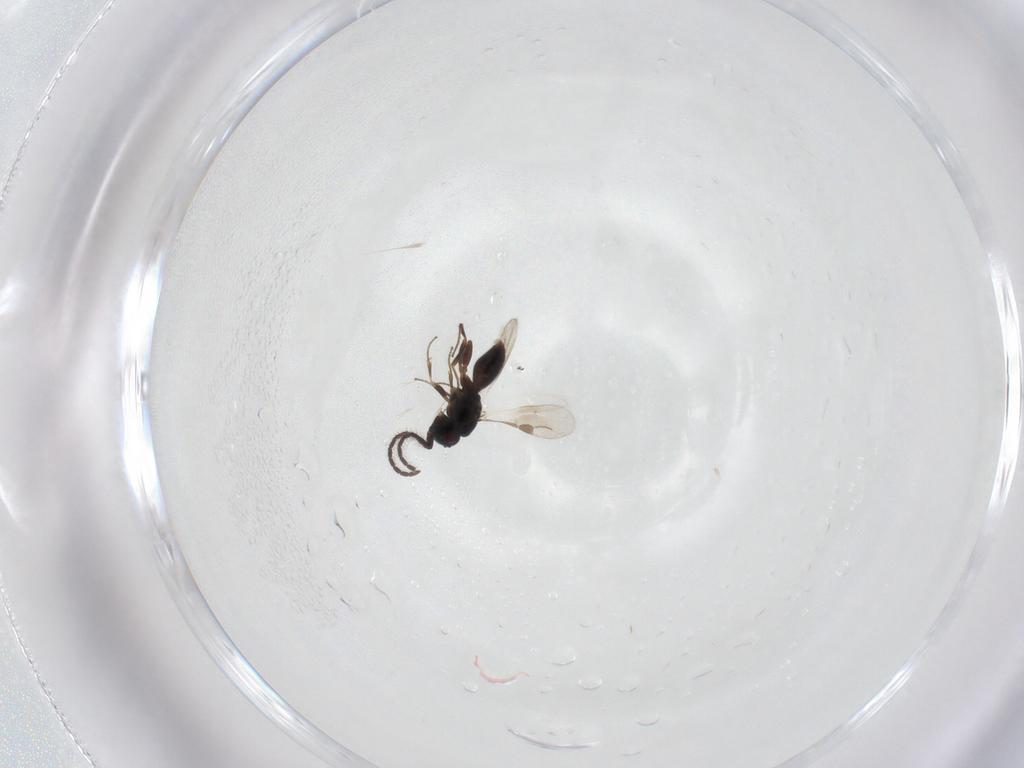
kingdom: Animalia
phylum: Arthropoda
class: Insecta
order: Hymenoptera
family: Megaspilidae
